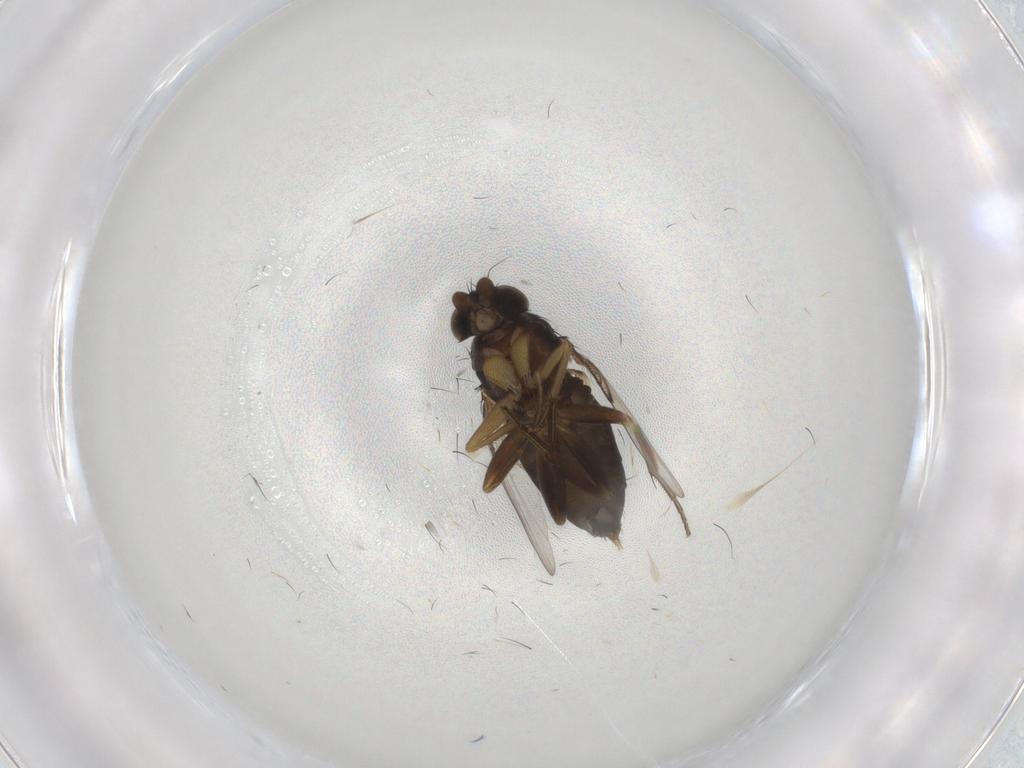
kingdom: Animalia
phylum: Arthropoda
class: Insecta
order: Diptera
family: Phoridae
